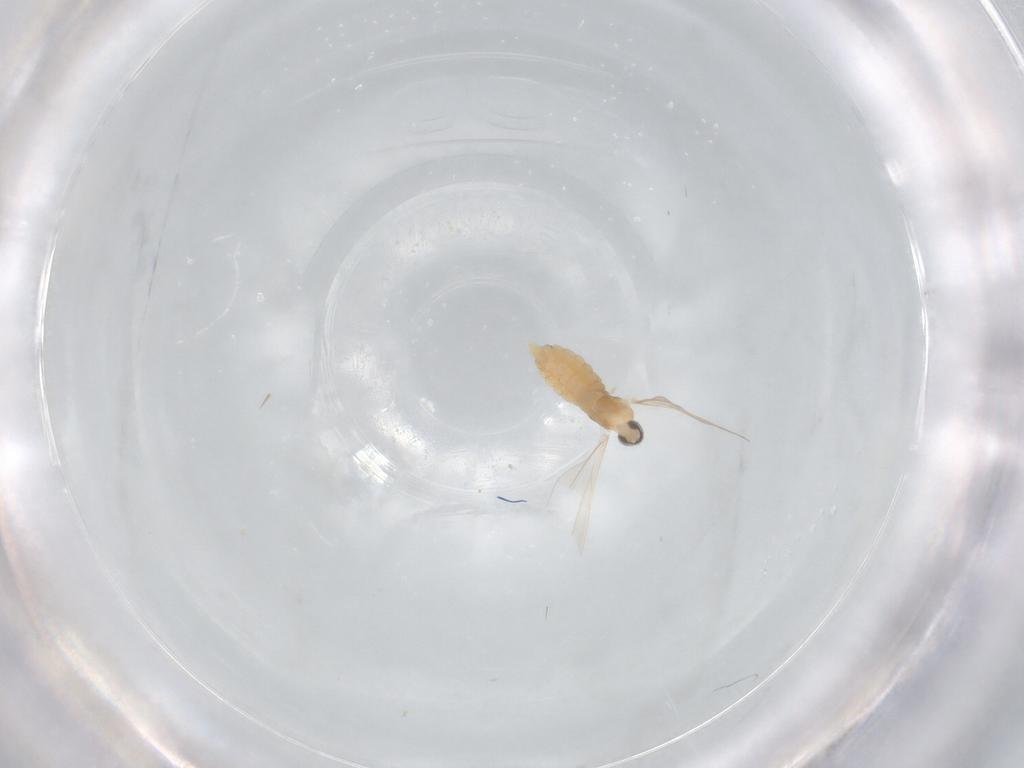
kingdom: Animalia
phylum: Arthropoda
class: Insecta
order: Diptera
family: Cecidomyiidae
